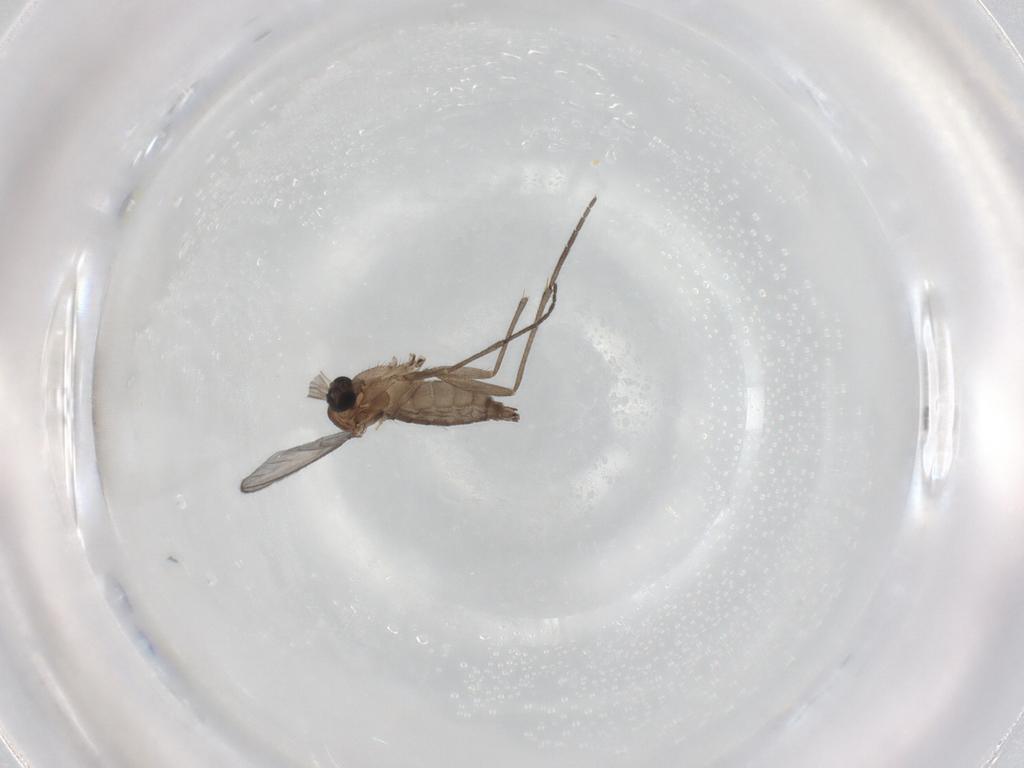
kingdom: Animalia
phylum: Arthropoda
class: Insecta
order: Diptera
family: Sciaridae
